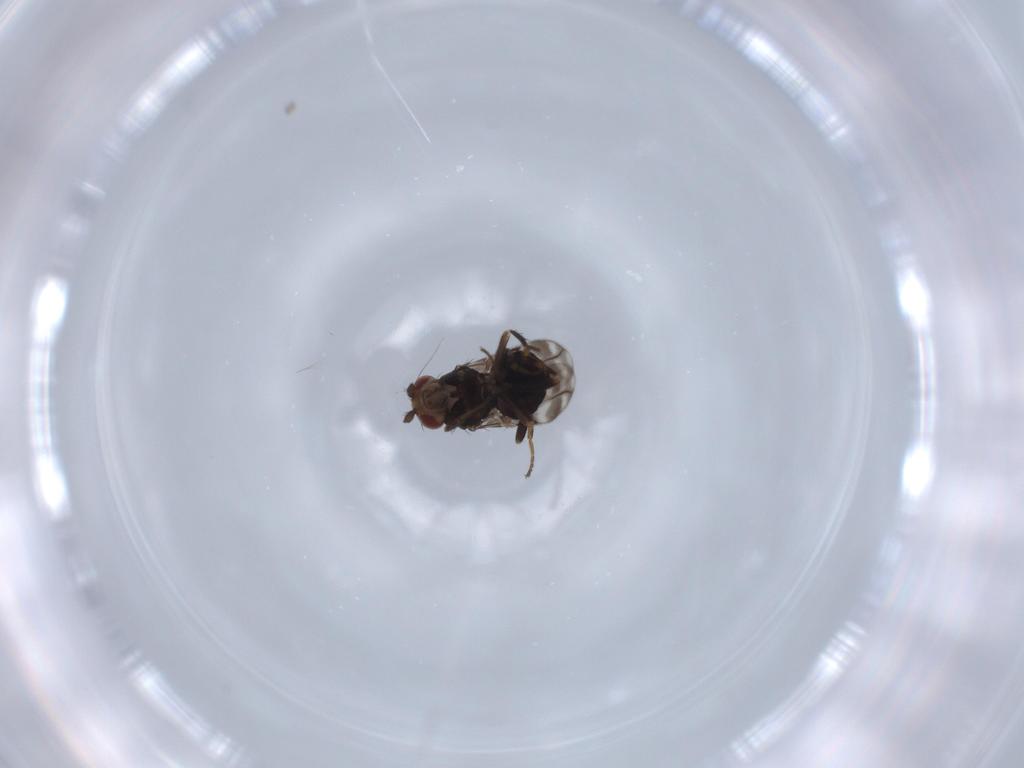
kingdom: Animalia
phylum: Arthropoda
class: Insecta
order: Diptera
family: Sphaeroceridae
